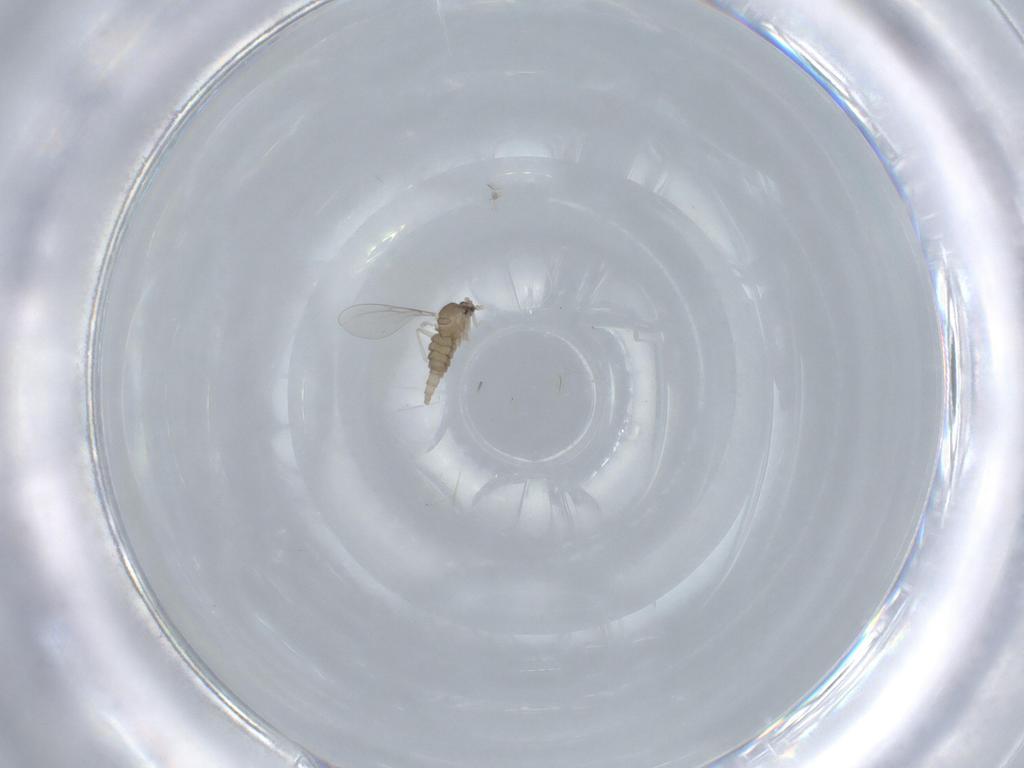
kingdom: Animalia
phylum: Arthropoda
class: Insecta
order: Diptera
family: Cecidomyiidae
